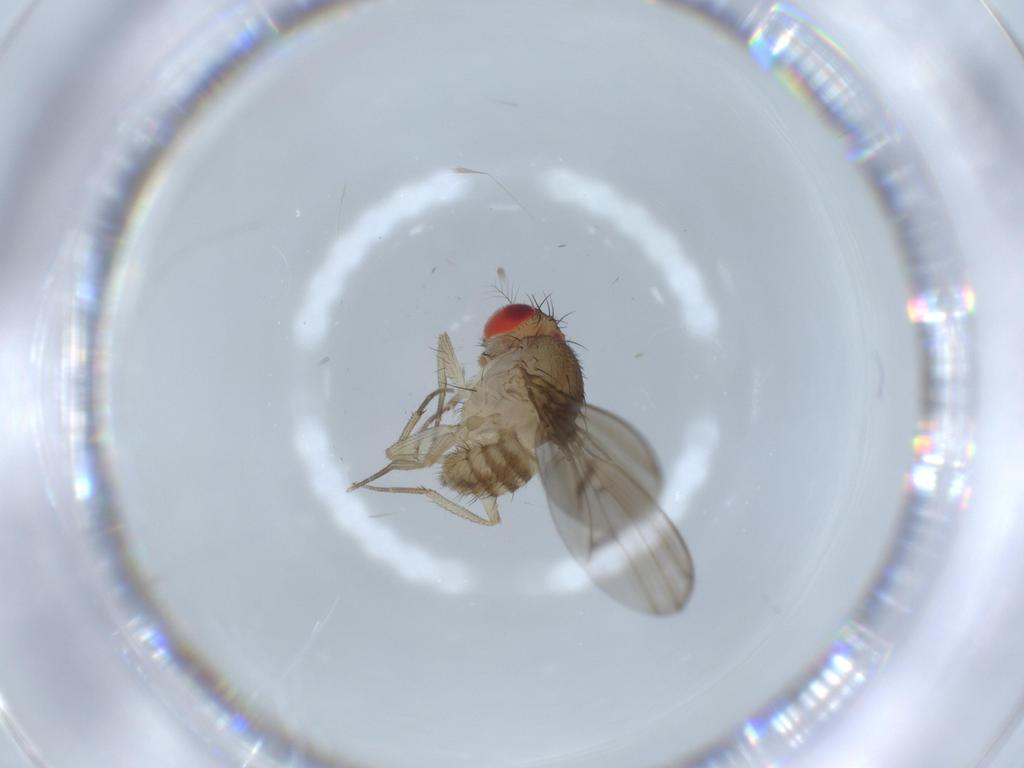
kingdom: Animalia
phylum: Arthropoda
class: Insecta
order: Diptera
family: Drosophilidae
